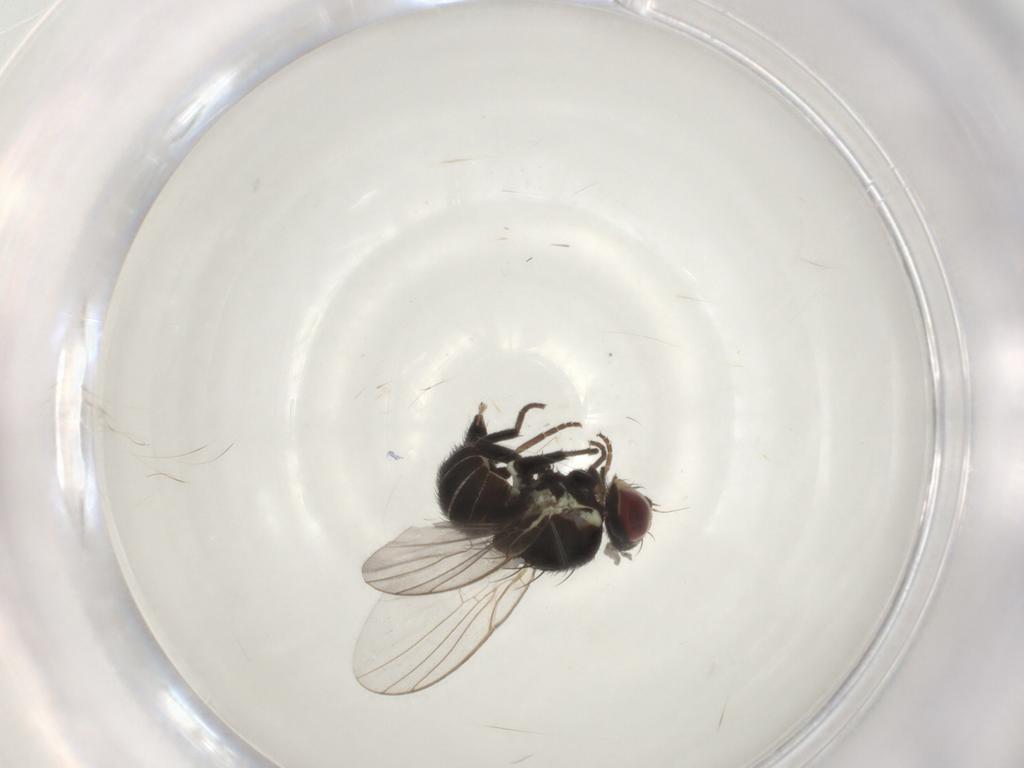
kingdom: Animalia
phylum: Arthropoda
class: Insecta
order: Diptera
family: Agromyzidae
